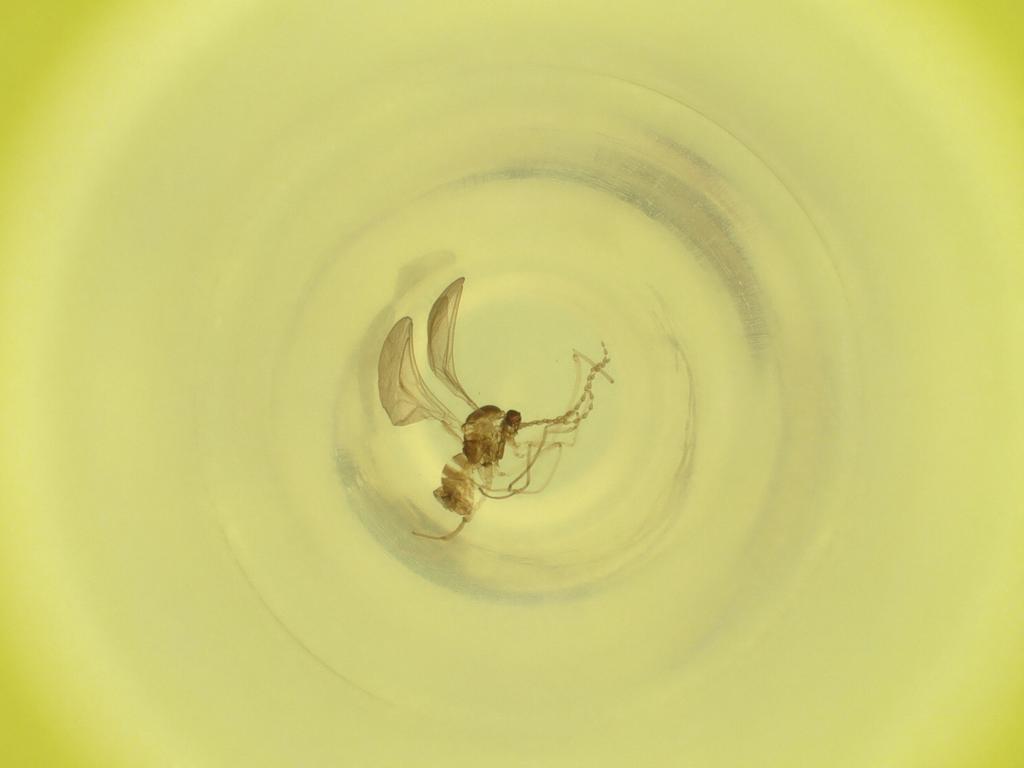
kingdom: Animalia
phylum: Arthropoda
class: Insecta
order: Diptera
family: Cecidomyiidae
